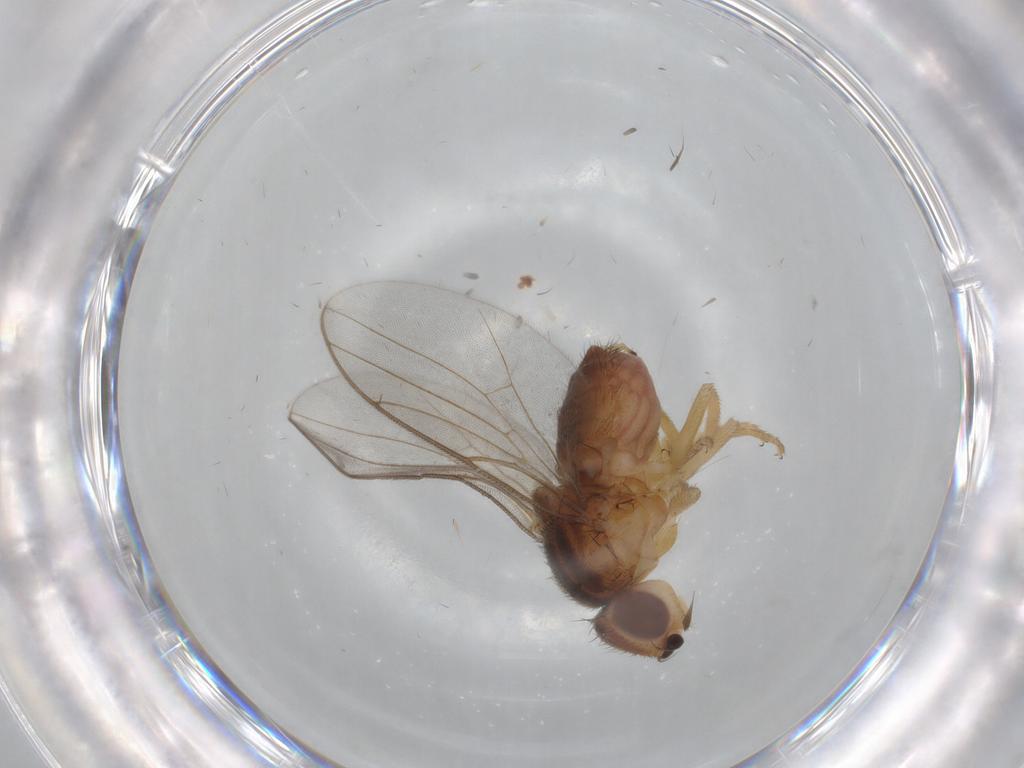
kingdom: Animalia
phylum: Arthropoda
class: Insecta
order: Diptera
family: Chloropidae
